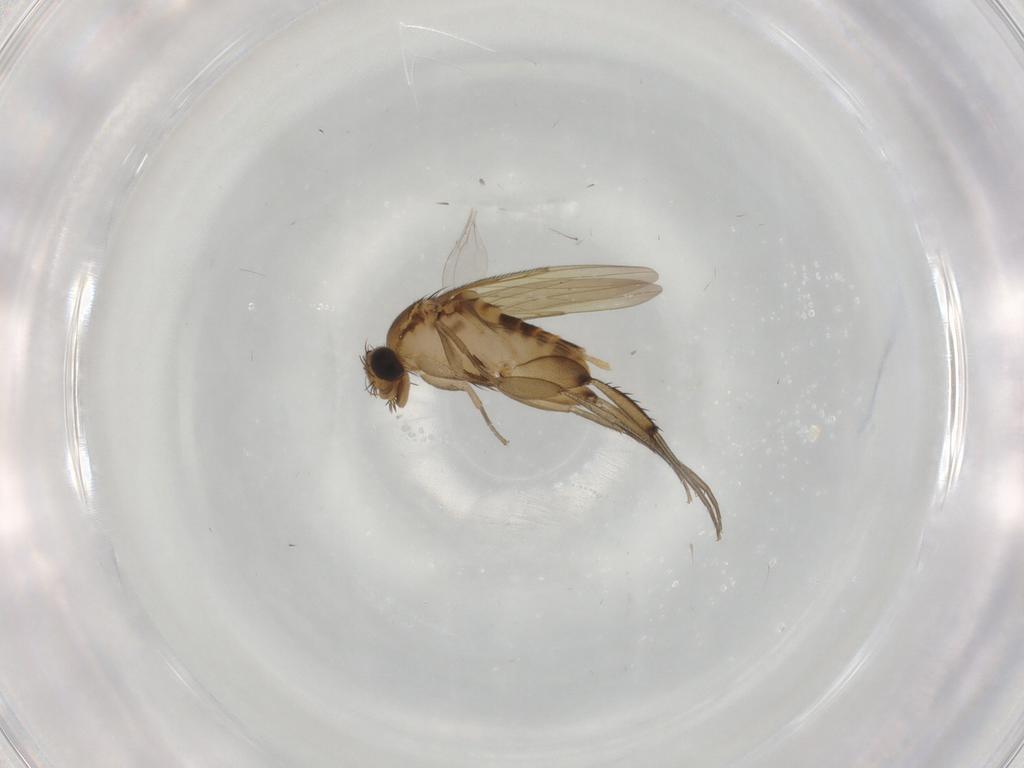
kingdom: Animalia
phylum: Arthropoda
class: Insecta
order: Diptera
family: Phoridae
